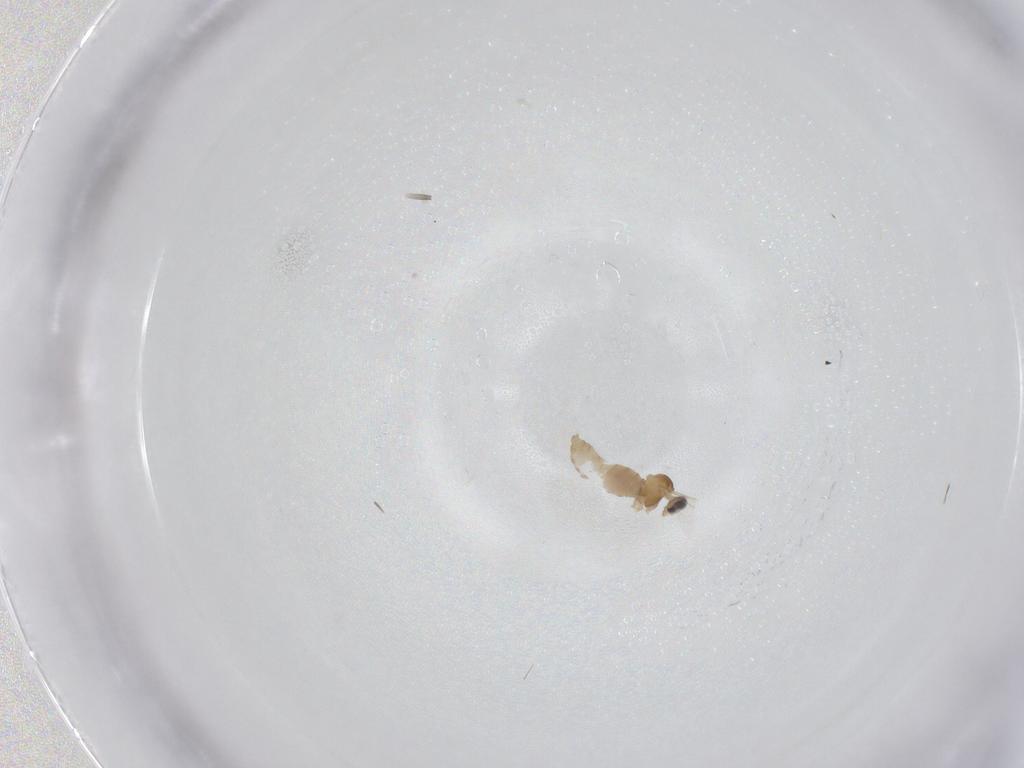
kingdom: Animalia
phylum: Arthropoda
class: Insecta
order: Diptera
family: Cecidomyiidae
